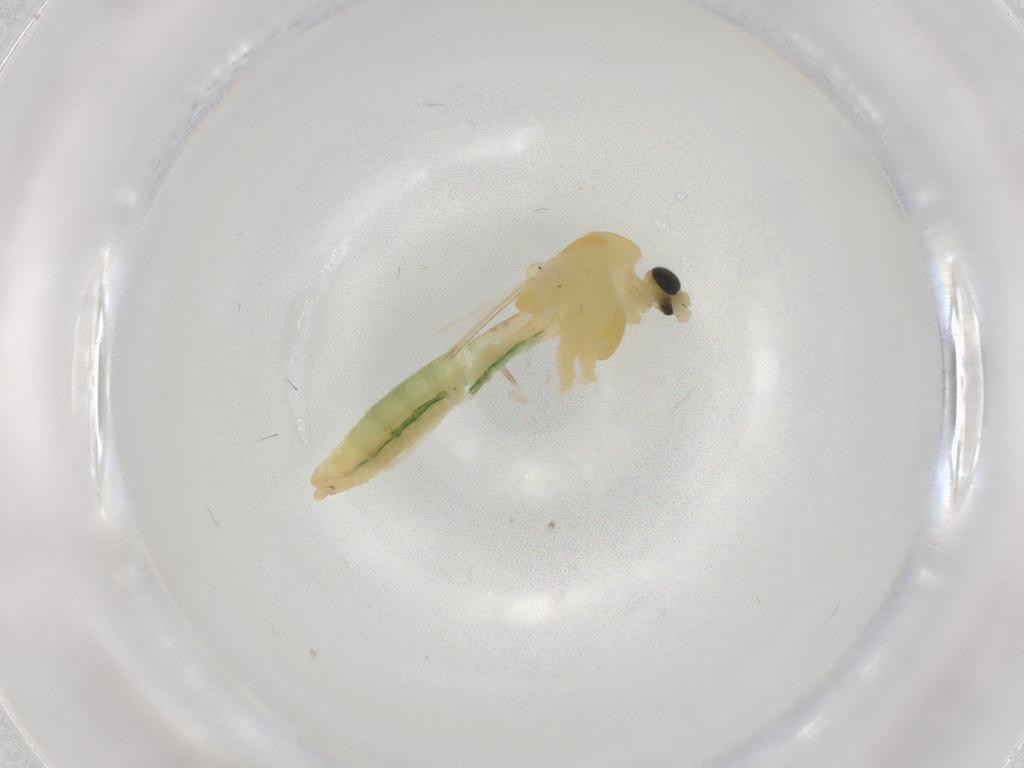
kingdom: Animalia
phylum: Arthropoda
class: Insecta
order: Diptera
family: Chironomidae
